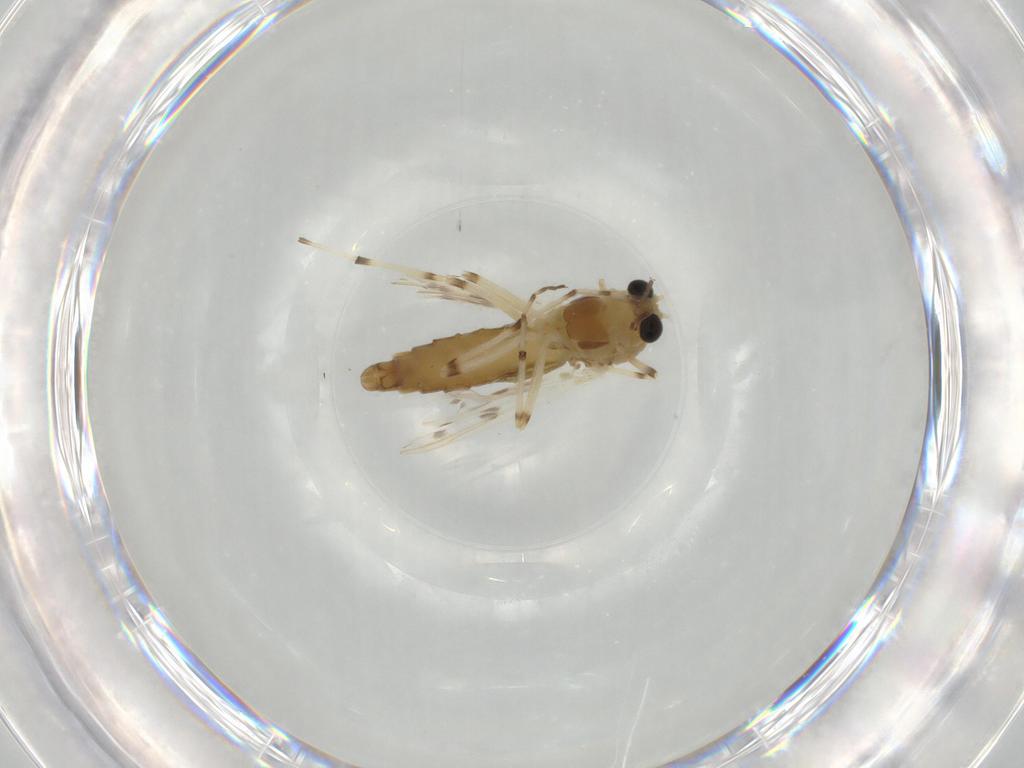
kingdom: Animalia
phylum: Arthropoda
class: Insecta
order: Diptera
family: Chironomidae
